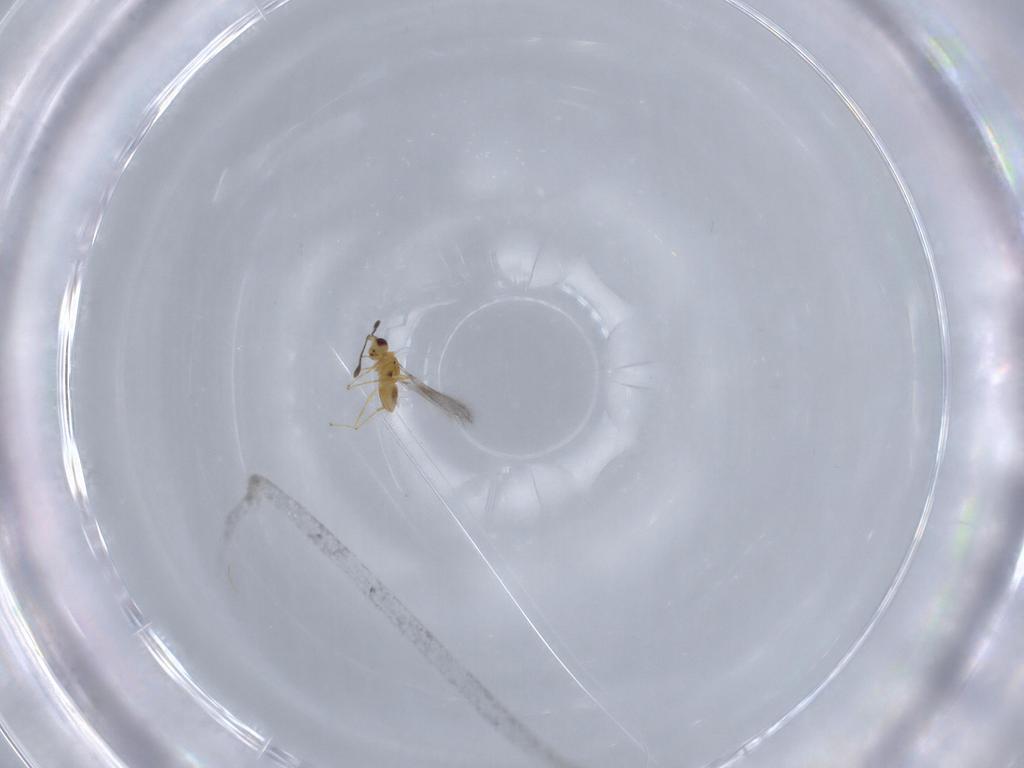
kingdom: Animalia
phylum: Arthropoda
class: Insecta
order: Hymenoptera
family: Mymaridae
